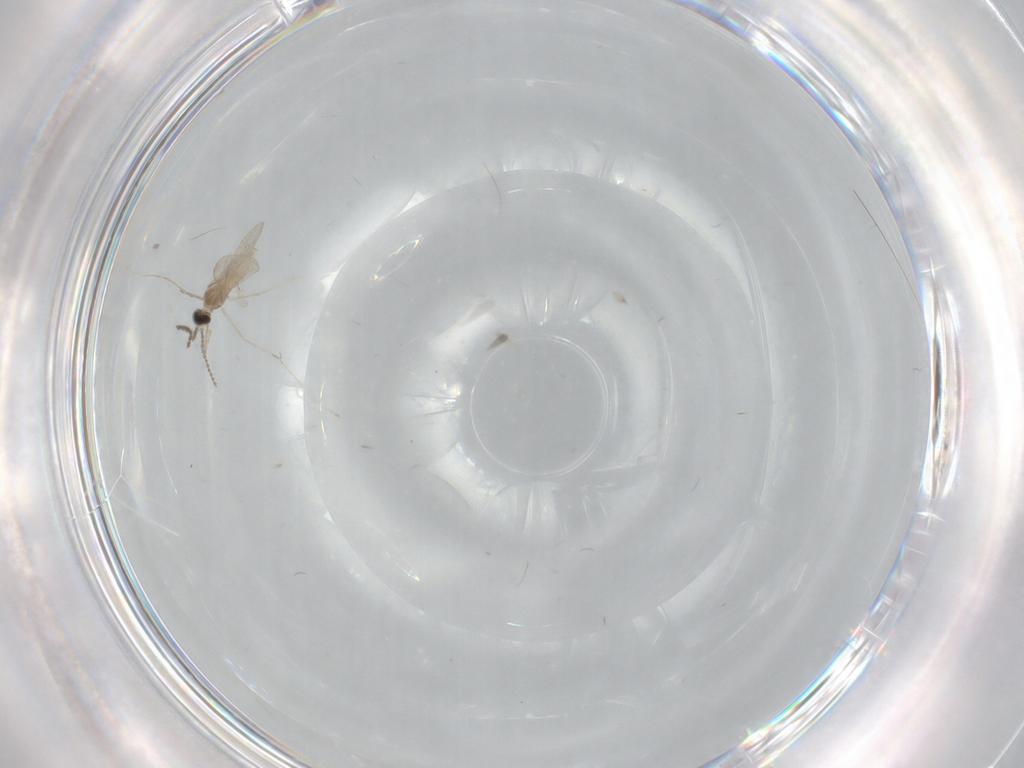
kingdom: Animalia
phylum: Arthropoda
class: Insecta
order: Diptera
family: Cecidomyiidae
